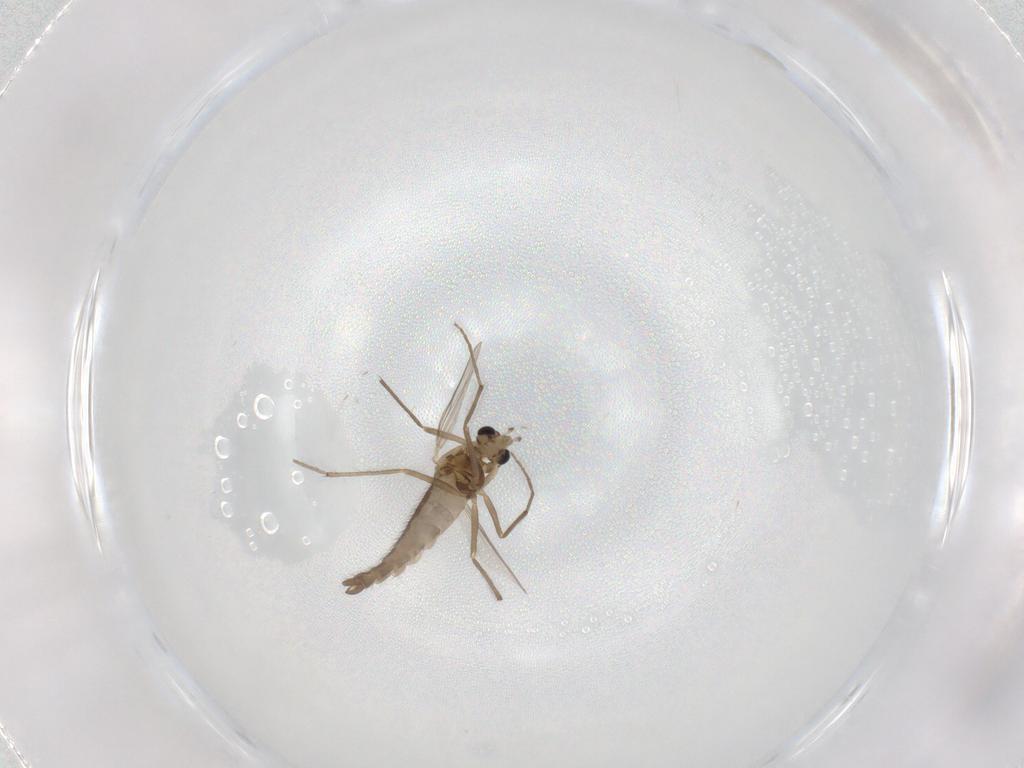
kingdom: Animalia
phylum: Arthropoda
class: Insecta
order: Diptera
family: Chironomidae
